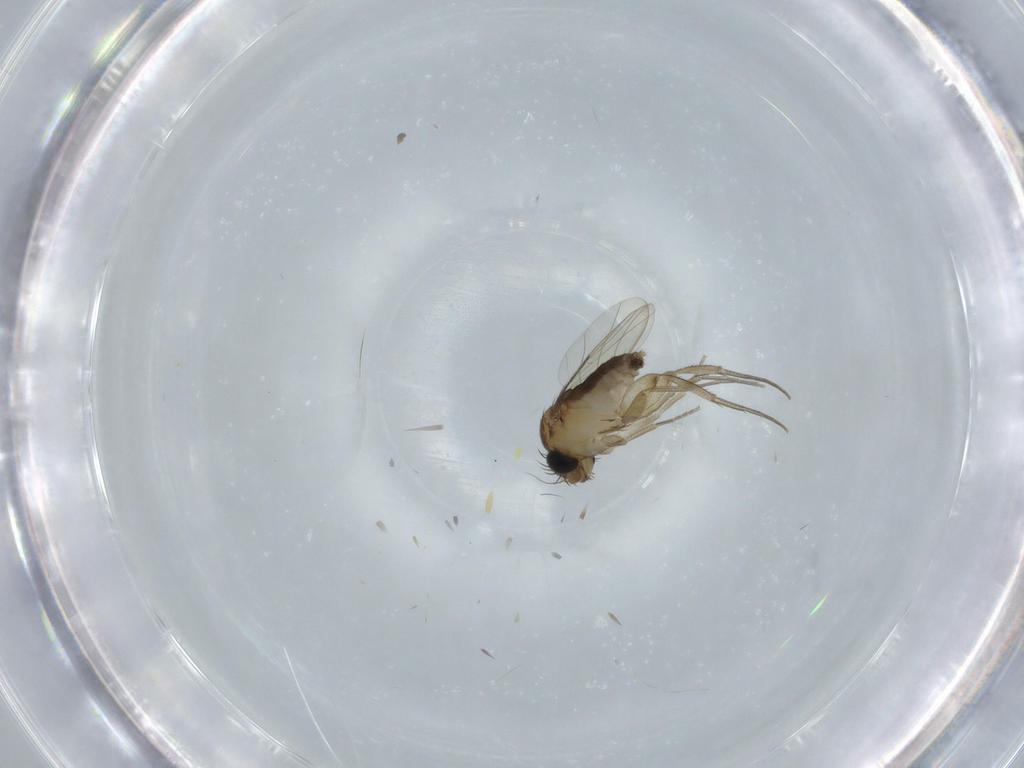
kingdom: Animalia
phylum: Arthropoda
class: Insecta
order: Diptera
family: Phoridae
